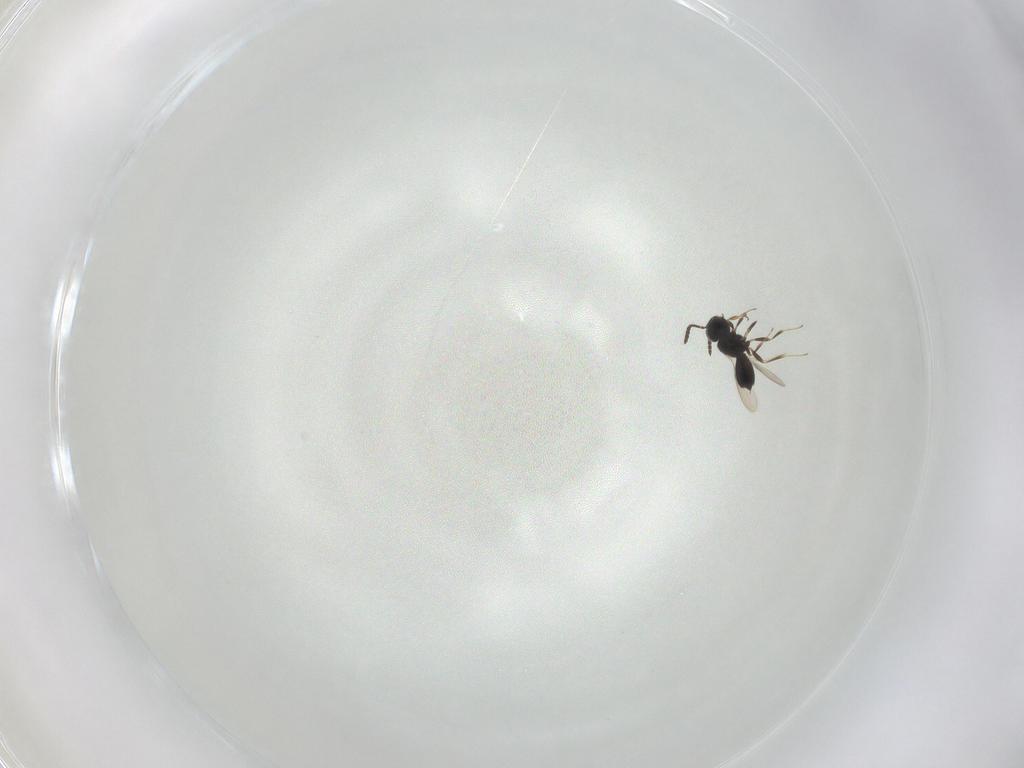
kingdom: Animalia
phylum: Arthropoda
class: Insecta
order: Hymenoptera
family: Scelionidae
